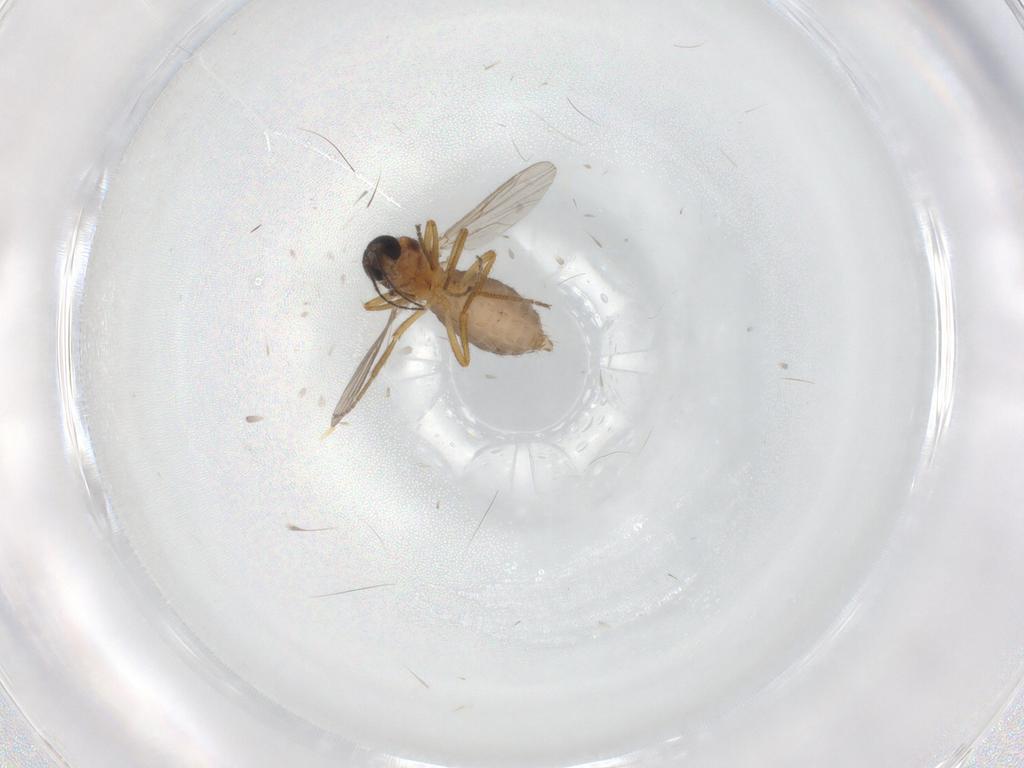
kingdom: Animalia
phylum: Arthropoda
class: Insecta
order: Diptera
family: Ceratopogonidae
